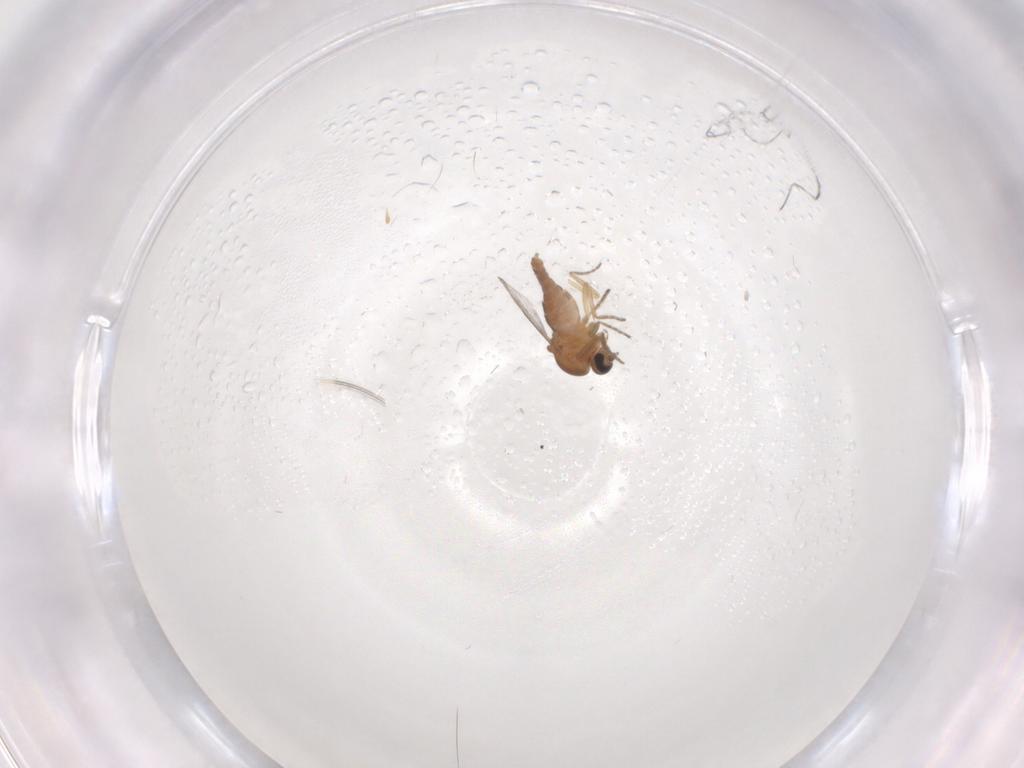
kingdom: Animalia
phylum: Arthropoda
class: Insecta
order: Diptera
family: Ceratopogonidae
